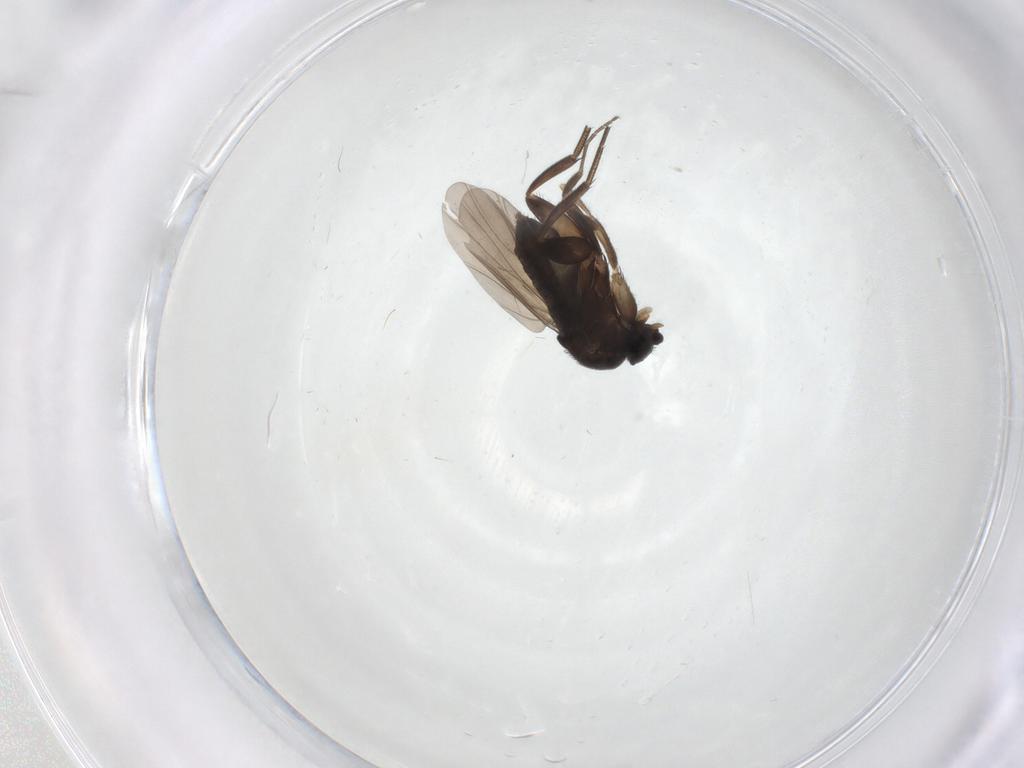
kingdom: Animalia
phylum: Arthropoda
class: Insecta
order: Diptera
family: Phoridae
